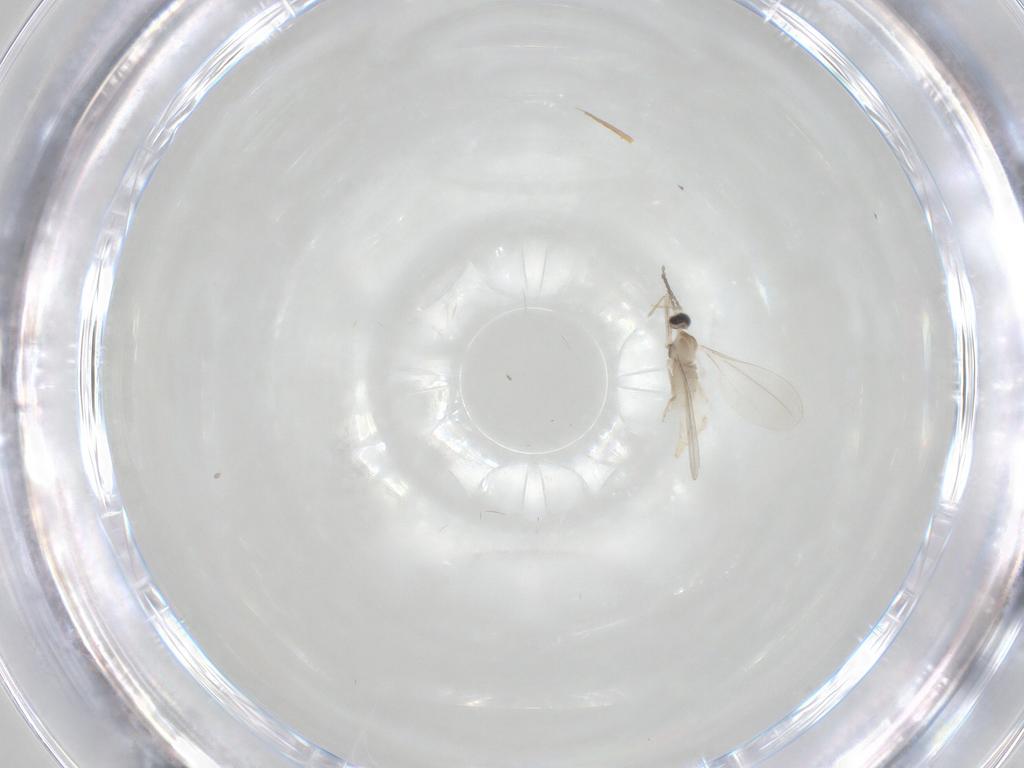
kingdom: Animalia
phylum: Arthropoda
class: Insecta
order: Diptera
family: Cecidomyiidae
